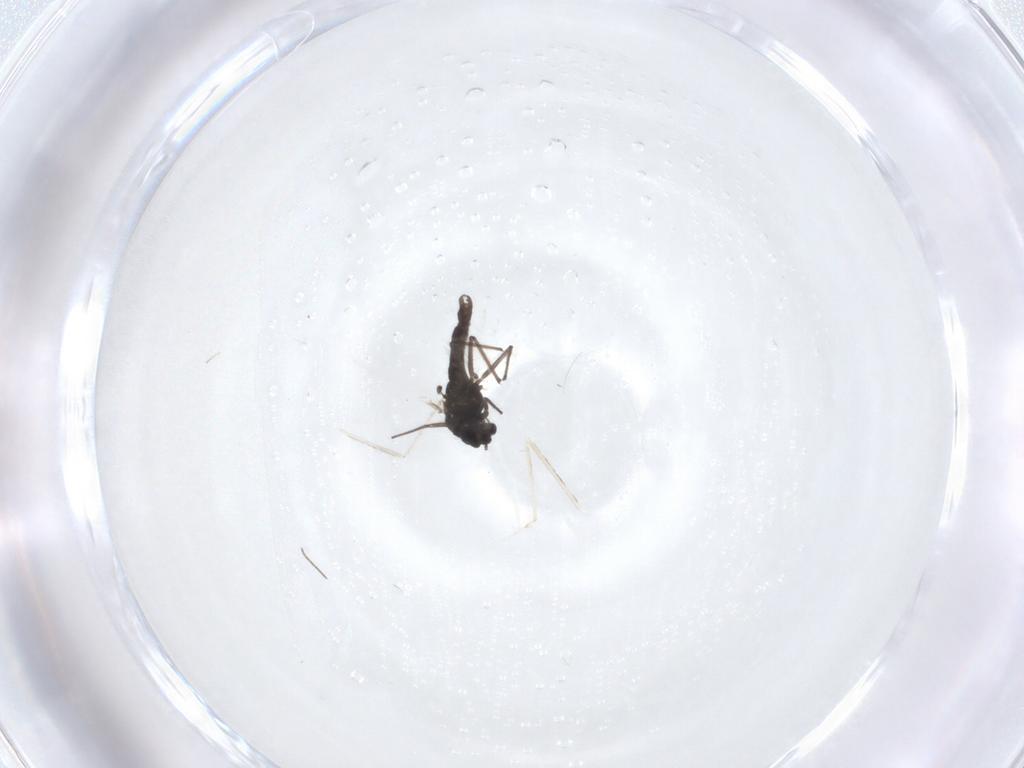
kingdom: Animalia
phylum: Arthropoda
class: Insecta
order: Diptera
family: Chironomidae
